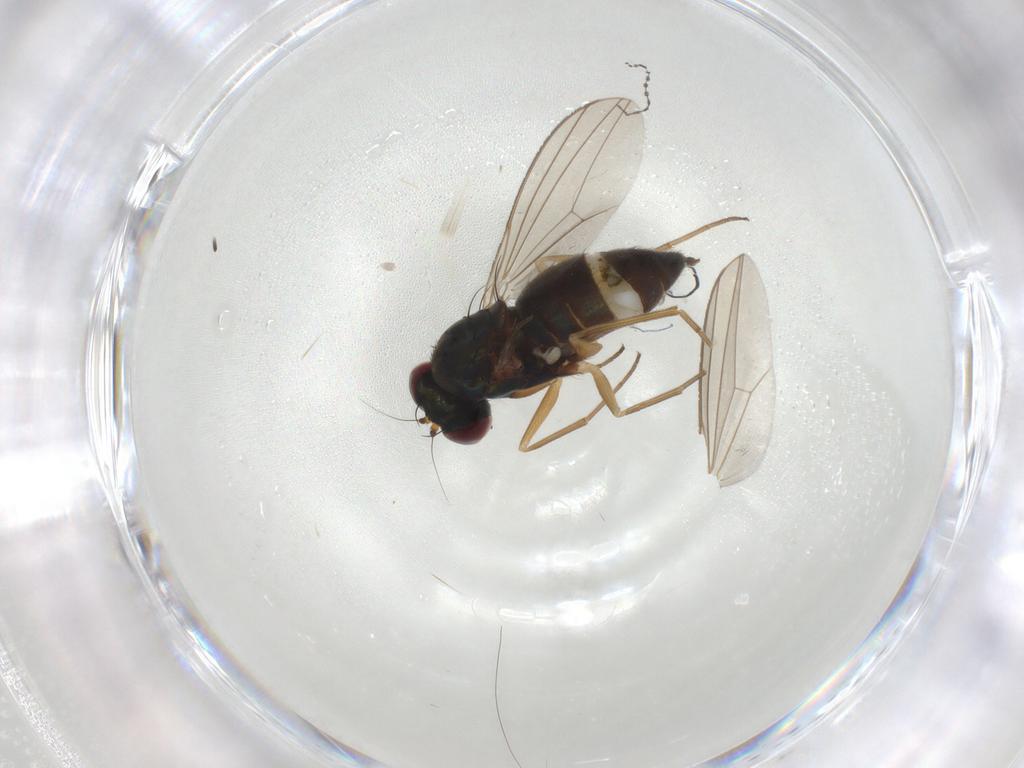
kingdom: Animalia
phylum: Arthropoda
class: Insecta
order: Diptera
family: Dolichopodidae
